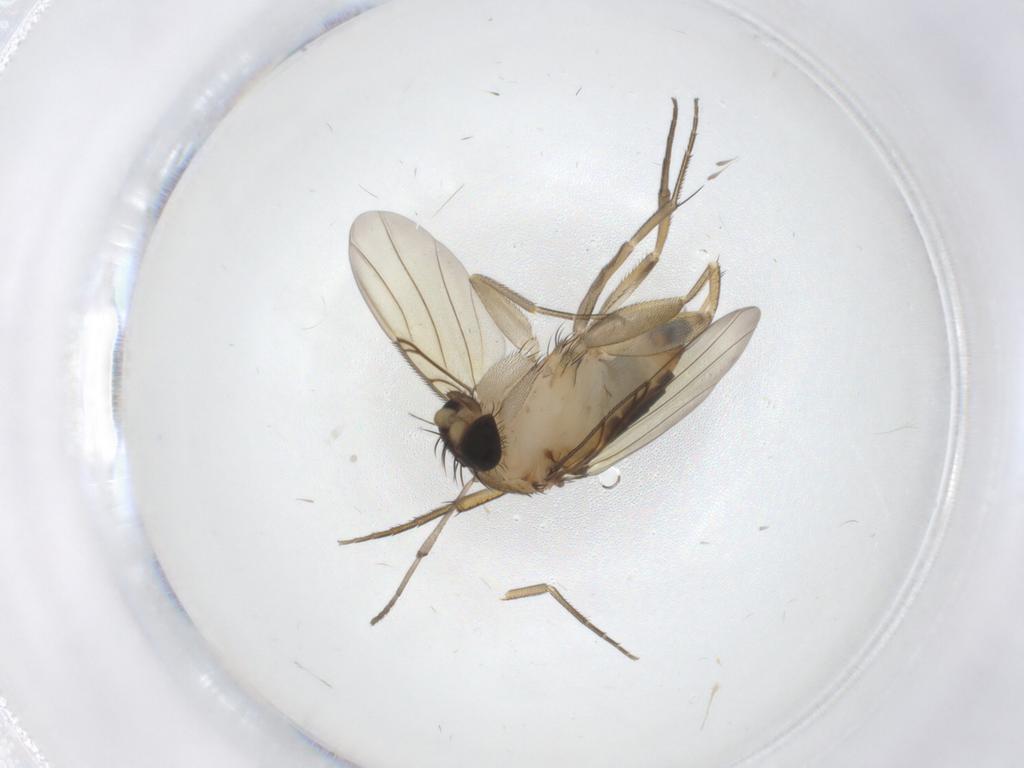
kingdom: Animalia
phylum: Arthropoda
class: Insecta
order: Diptera
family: Psychodidae
